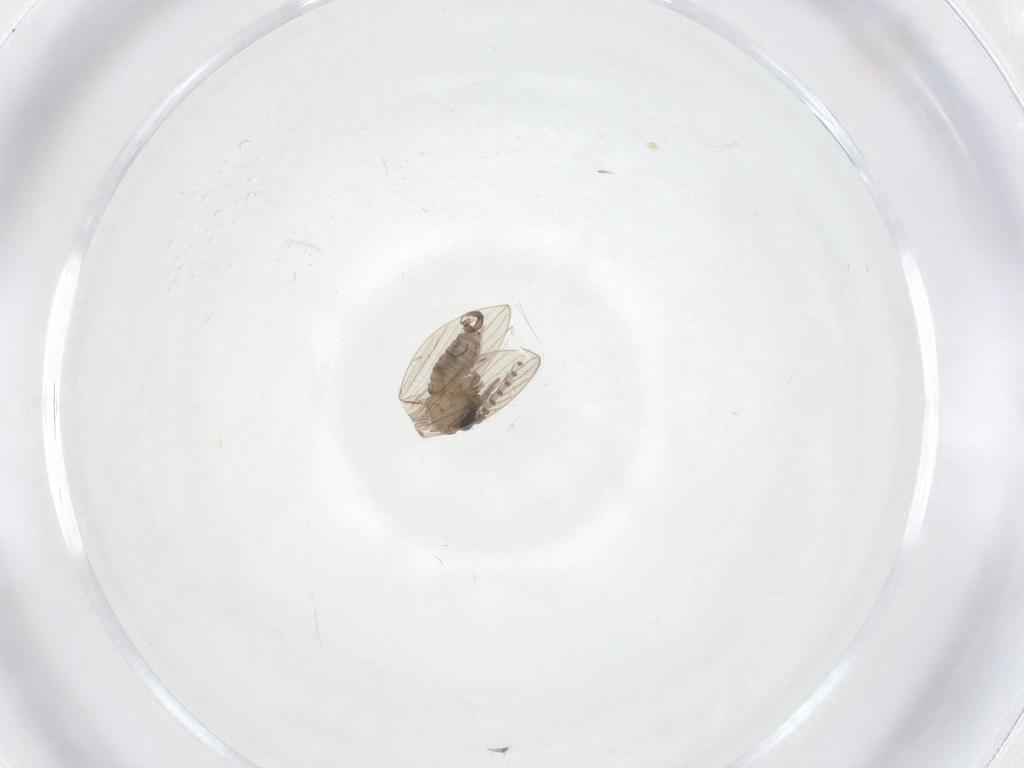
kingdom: Animalia
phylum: Arthropoda
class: Insecta
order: Diptera
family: Psychodidae
